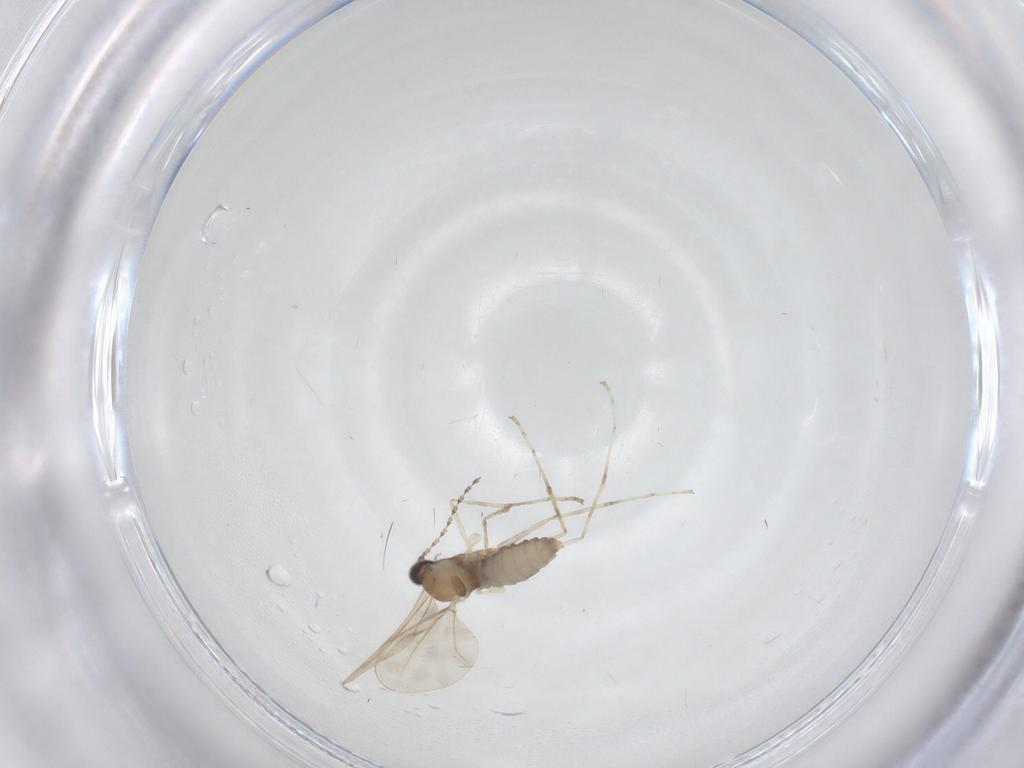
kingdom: Animalia
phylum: Arthropoda
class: Insecta
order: Diptera
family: Cecidomyiidae
